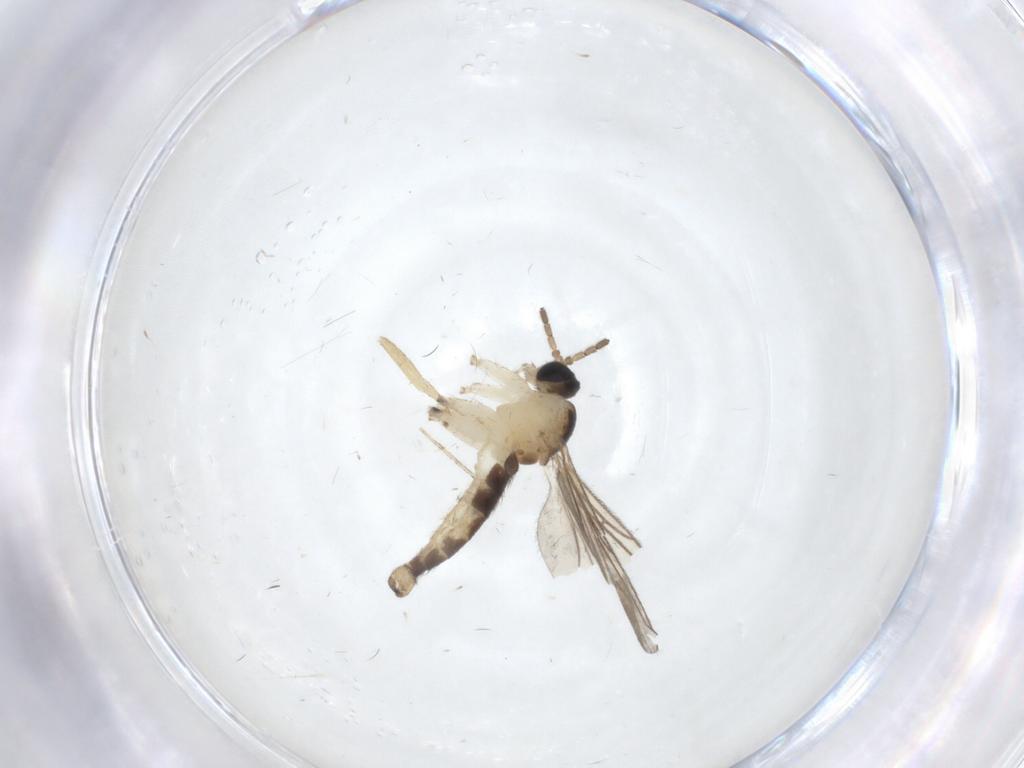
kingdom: Animalia
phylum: Arthropoda
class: Insecta
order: Diptera
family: Sciaridae
